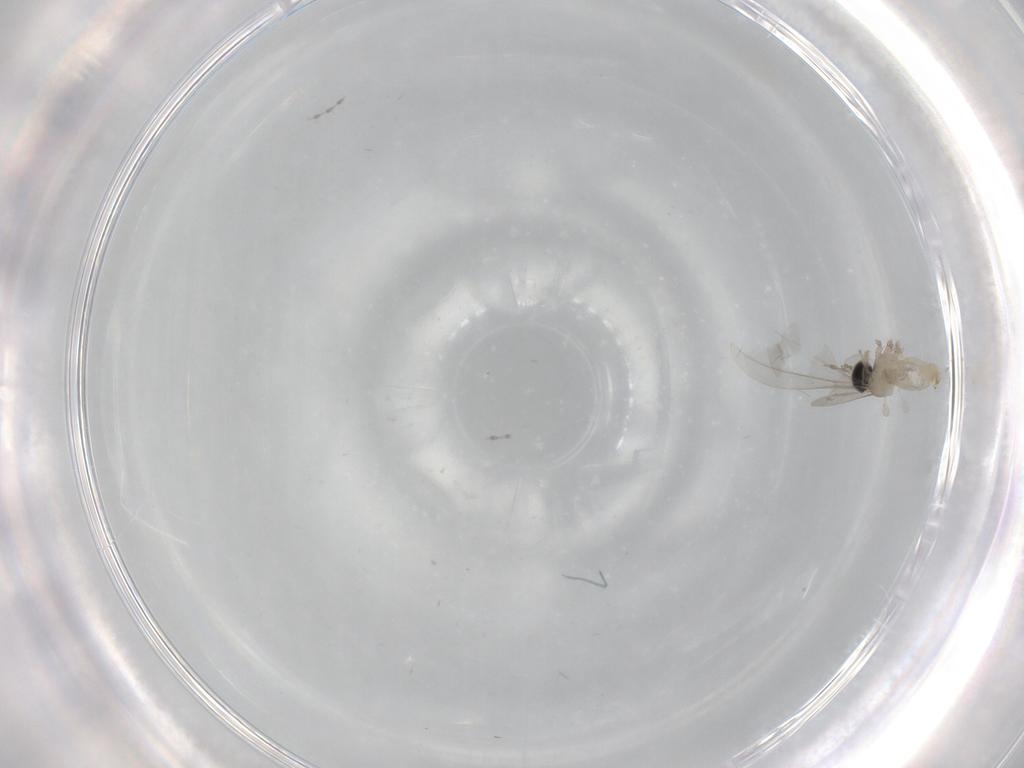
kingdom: Animalia
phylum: Arthropoda
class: Insecta
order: Diptera
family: Cecidomyiidae
